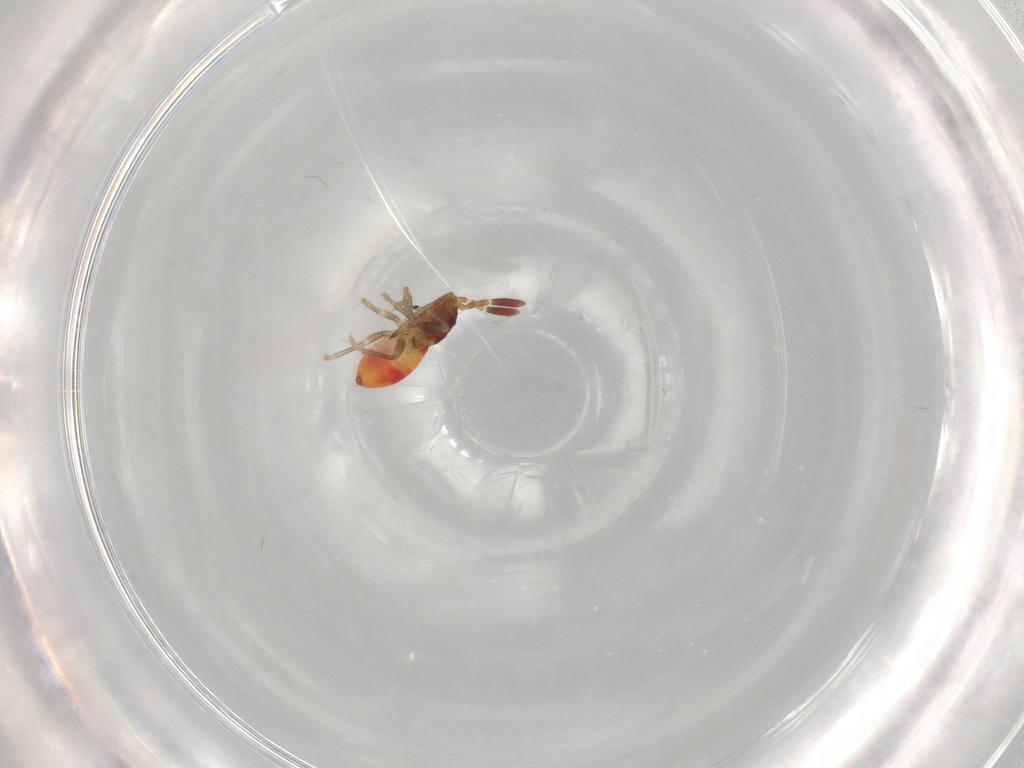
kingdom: Animalia
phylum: Arthropoda
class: Insecta
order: Hemiptera
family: Rhyparochromidae
